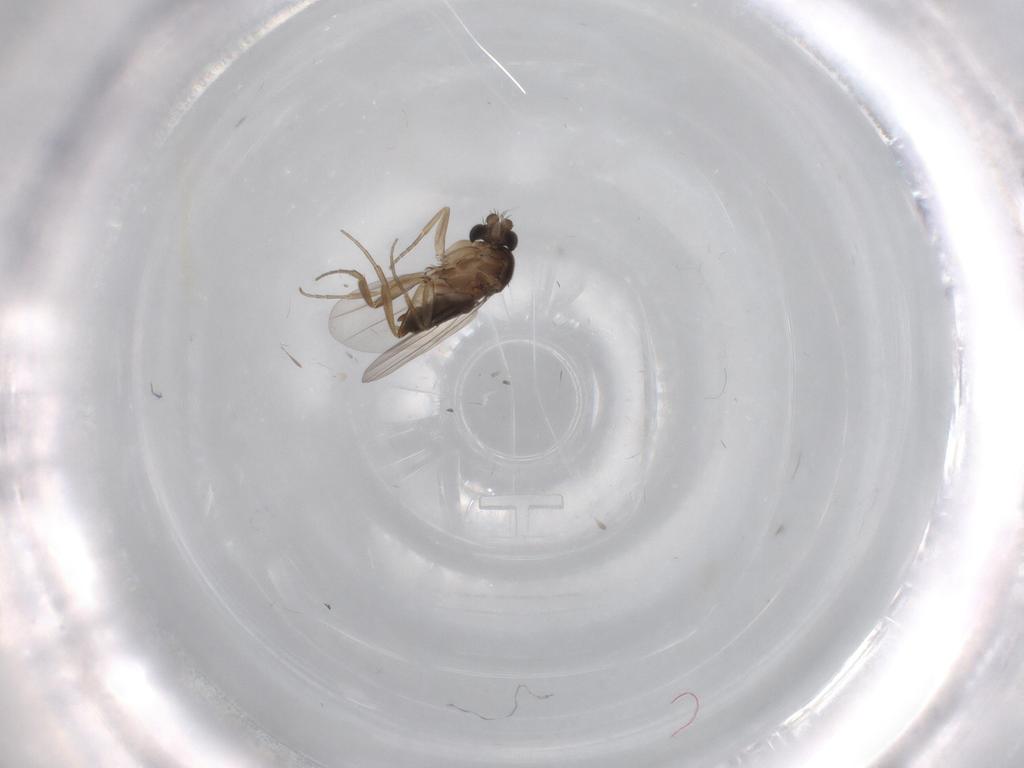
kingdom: Animalia
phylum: Arthropoda
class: Insecta
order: Diptera
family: Phoridae
